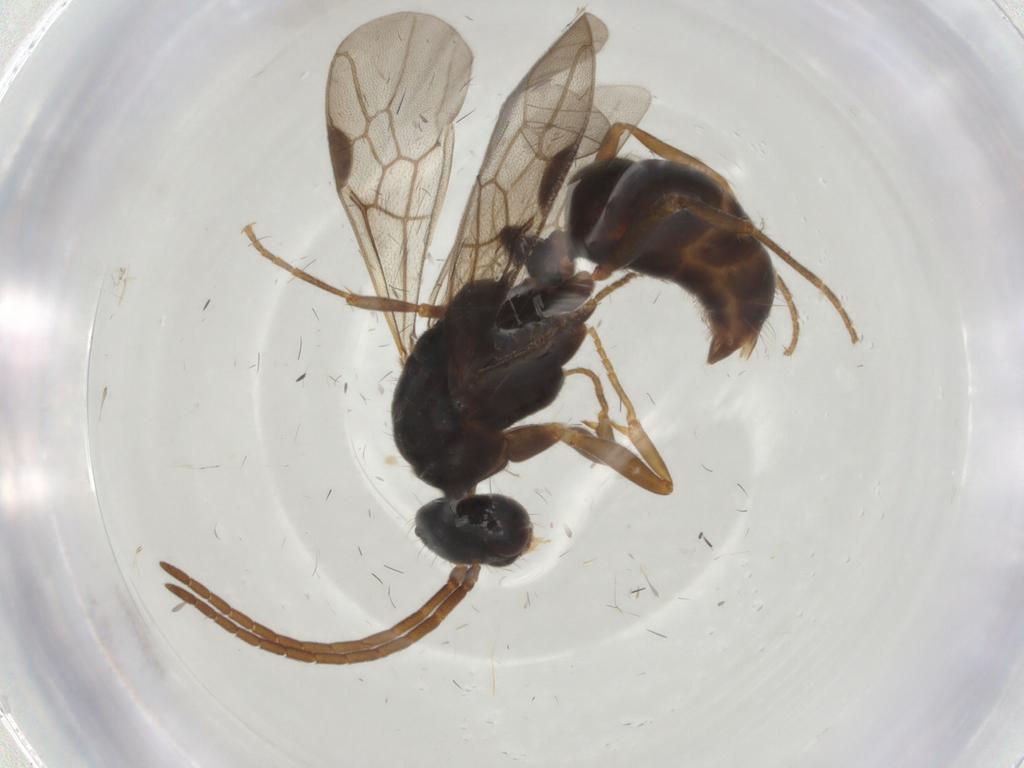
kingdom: Animalia
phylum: Arthropoda
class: Insecta
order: Hymenoptera
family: Formicidae
